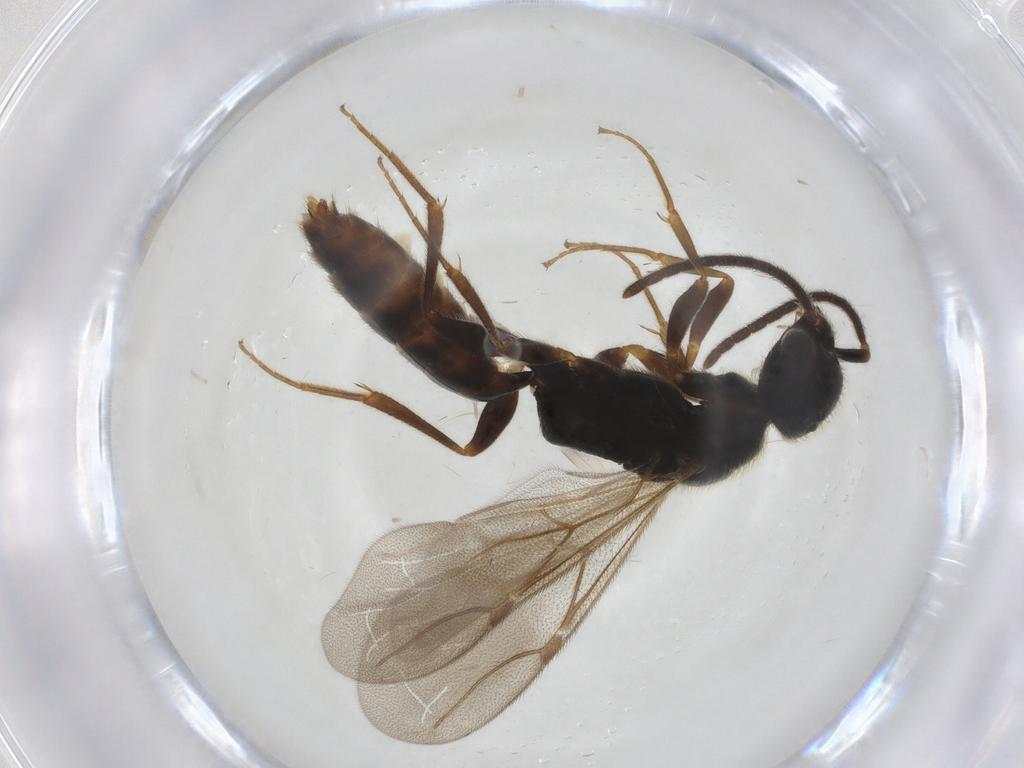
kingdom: Animalia
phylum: Arthropoda
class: Insecta
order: Hymenoptera
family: Bethylidae
